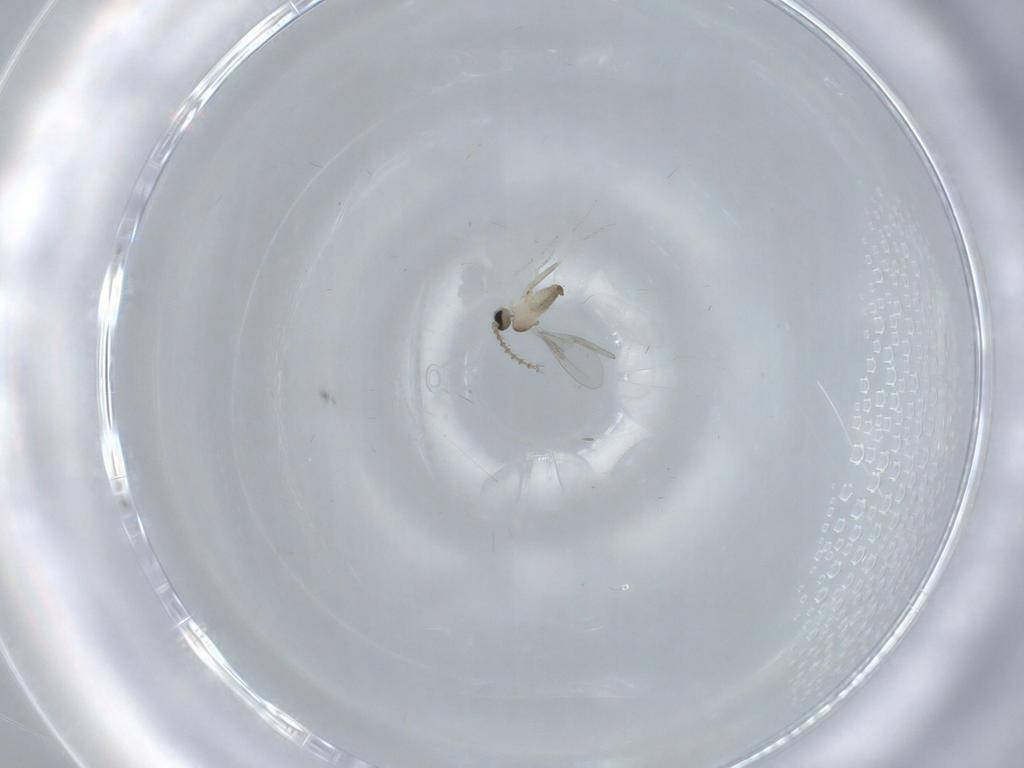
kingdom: Animalia
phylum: Arthropoda
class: Insecta
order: Diptera
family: Cecidomyiidae
